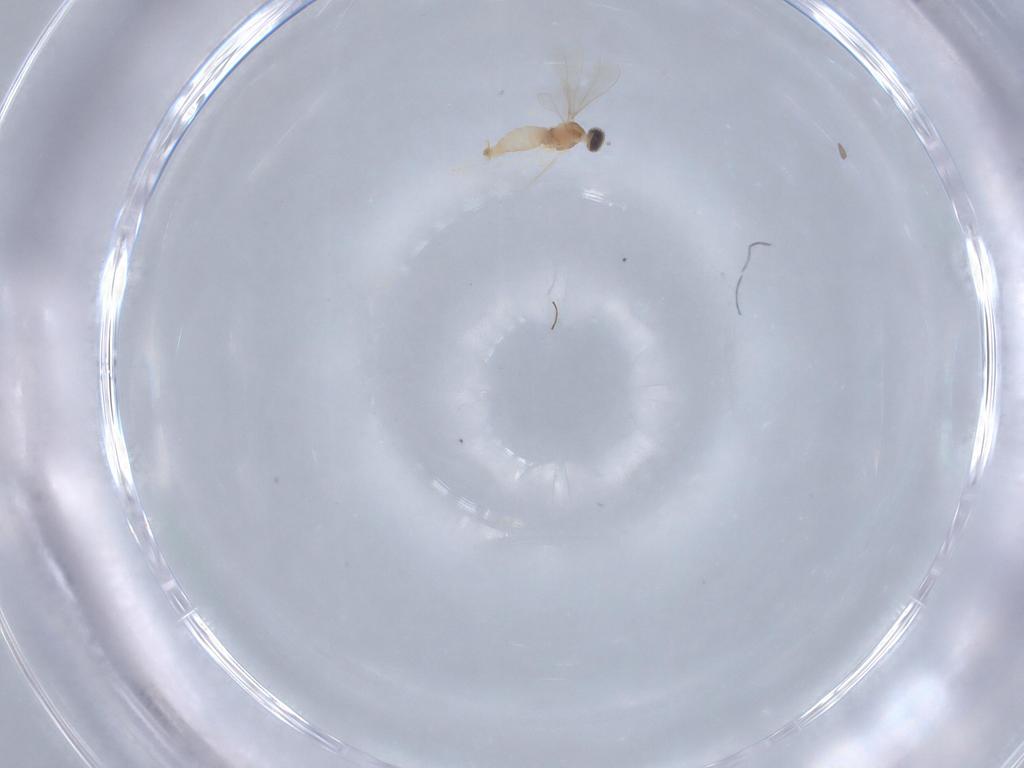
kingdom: Animalia
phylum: Arthropoda
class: Insecta
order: Diptera
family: Cecidomyiidae
